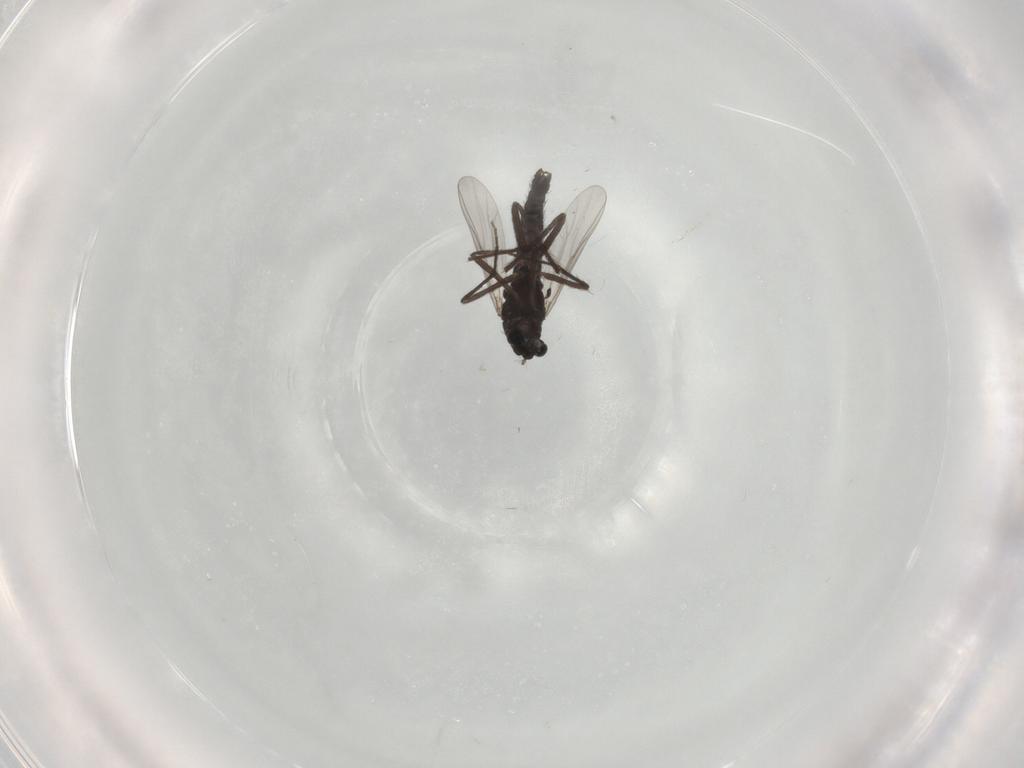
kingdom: Animalia
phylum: Arthropoda
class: Insecta
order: Diptera
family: Chironomidae
